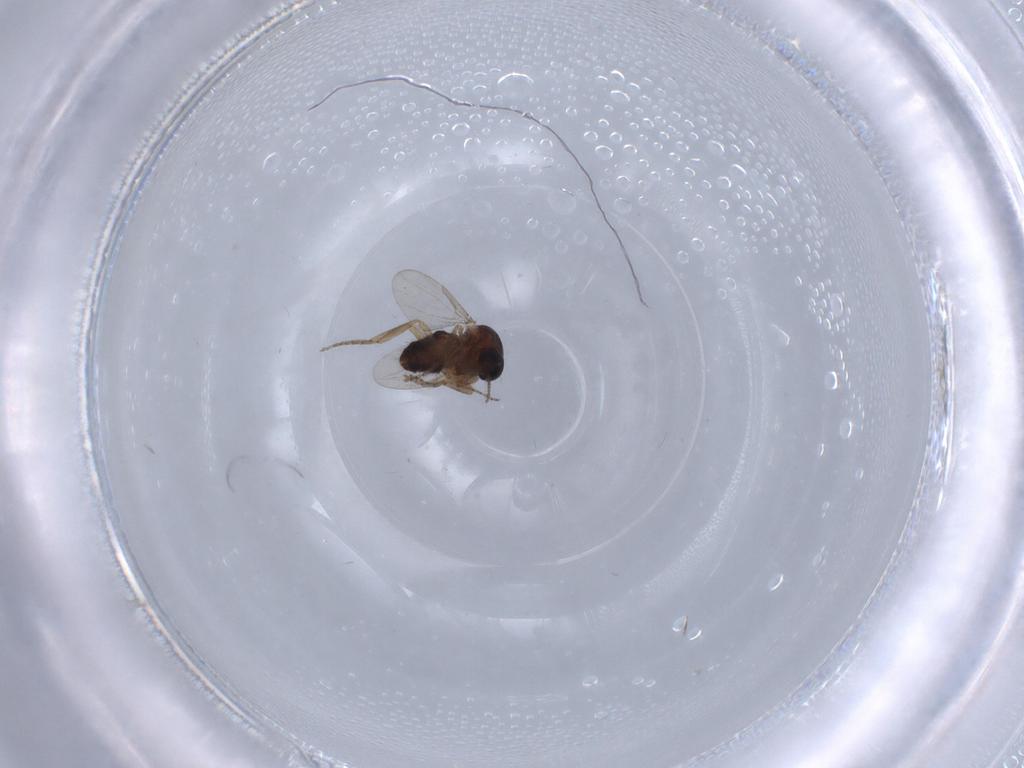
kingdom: Animalia
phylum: Arthropoda
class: Insecta
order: Diptera
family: Ceratopogonidae
